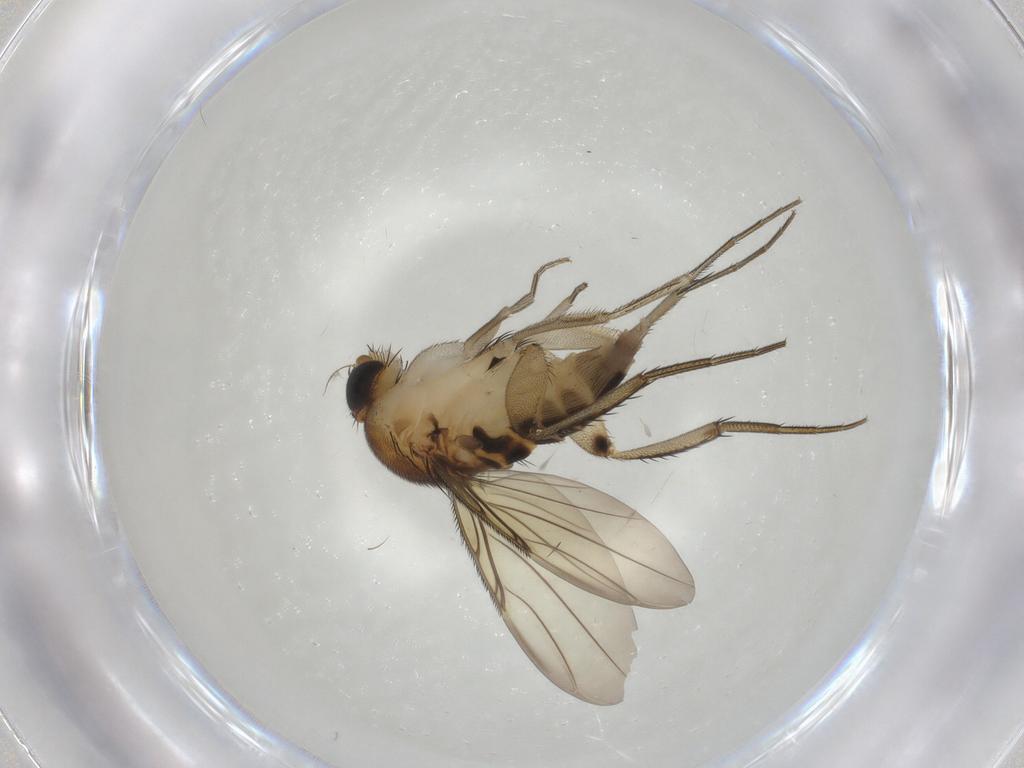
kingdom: Animalia
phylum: Arthropoda
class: Insecta
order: Diptera
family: Phoridae
